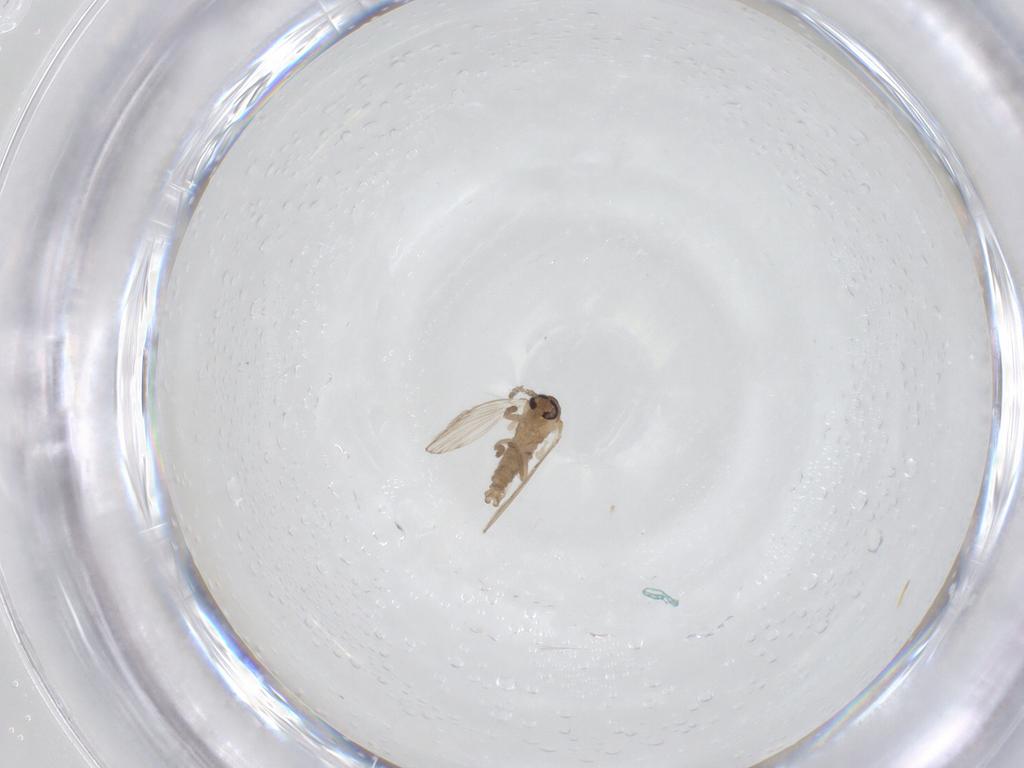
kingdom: Animalia
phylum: Arthropoda
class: Insecta
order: Diptera
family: Psychodidae
